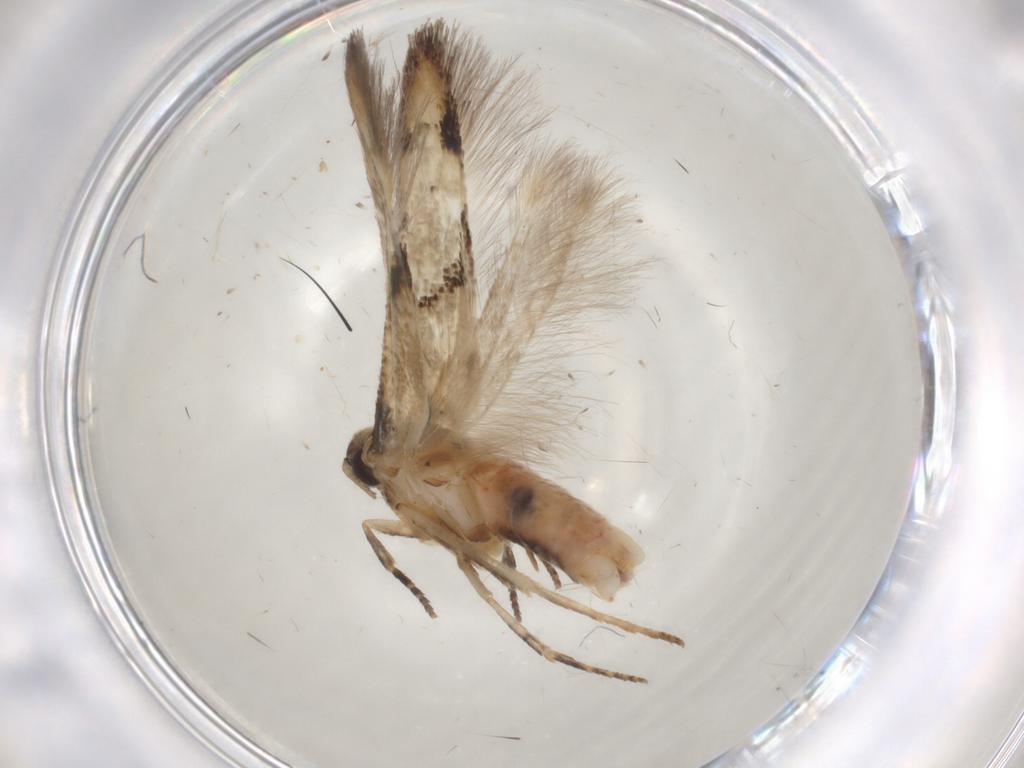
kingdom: Animalia
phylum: Arthropoda
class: Insecta
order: Lepidoptera
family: Cosmopterigidae
